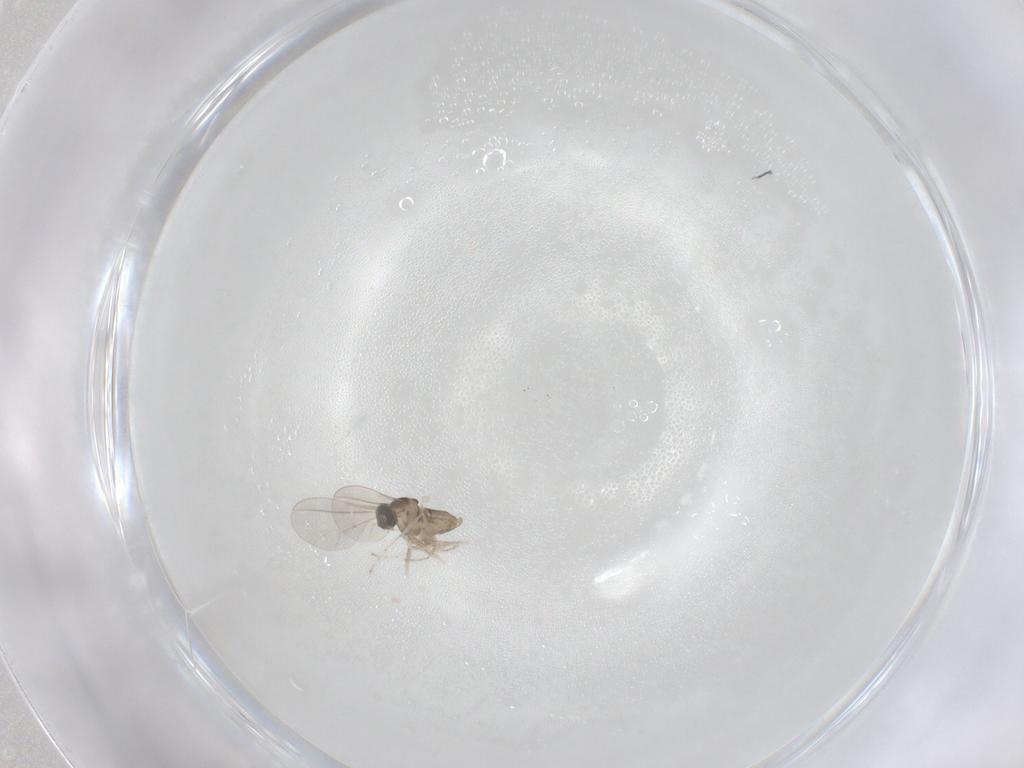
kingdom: Animalia
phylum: Arthropoda
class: Insecta
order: Diptera
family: Cecidomyiidae
